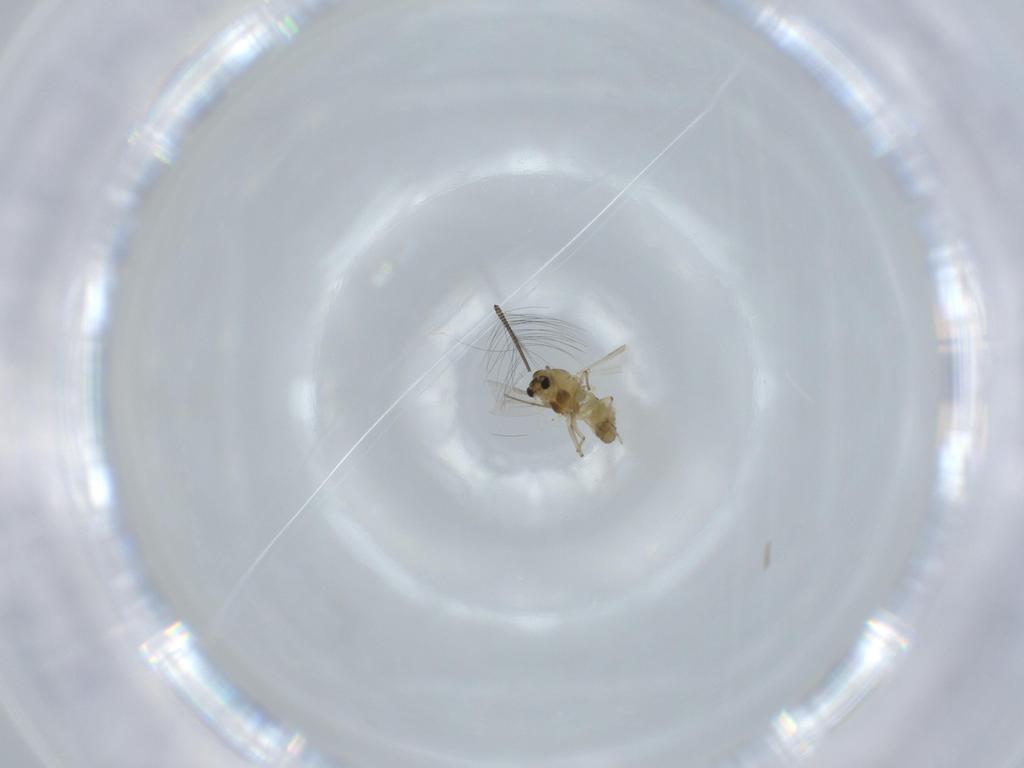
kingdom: Animalia
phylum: Arthropoda
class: Insecta
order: Diptera
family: Chironomidae
